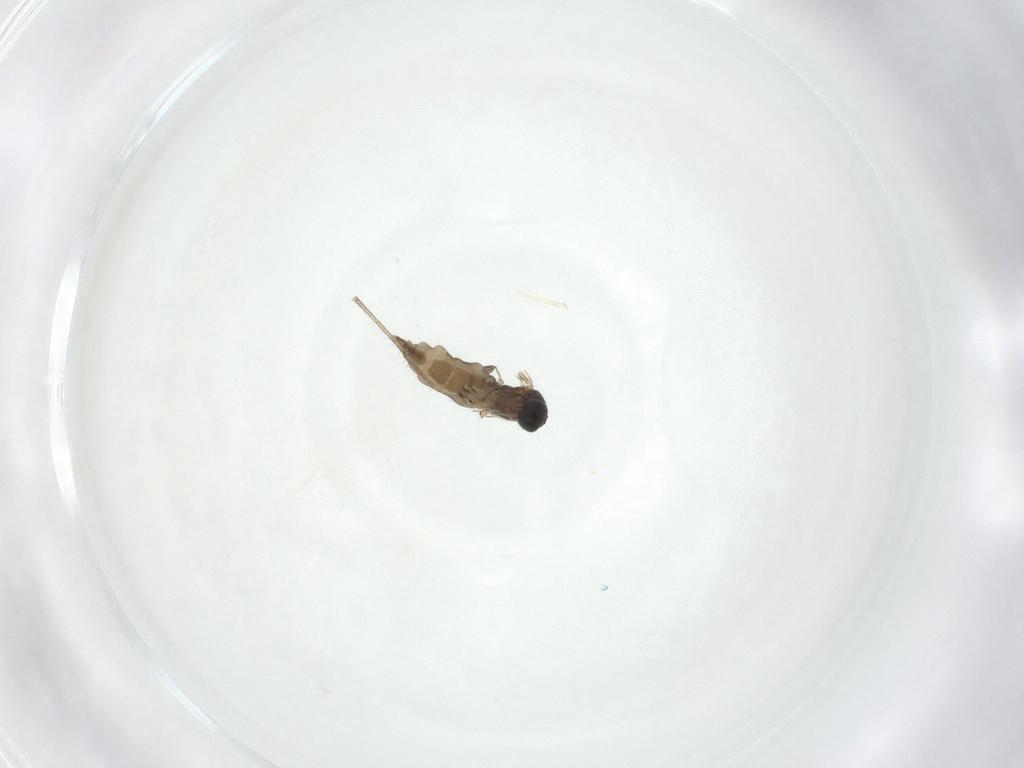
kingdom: Animalia
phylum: Arthropoda
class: Insecta
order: Diptera
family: Sciaridae
